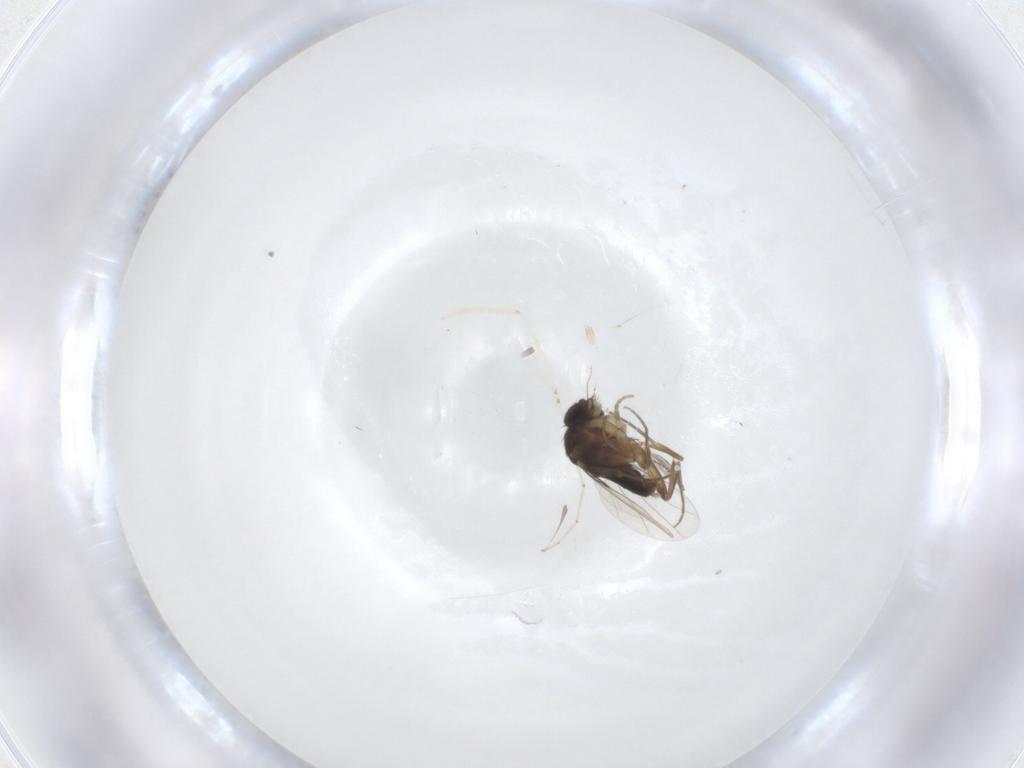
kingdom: Animalia
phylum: Arthropoda
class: Insecta
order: Diptera
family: Phoridae
